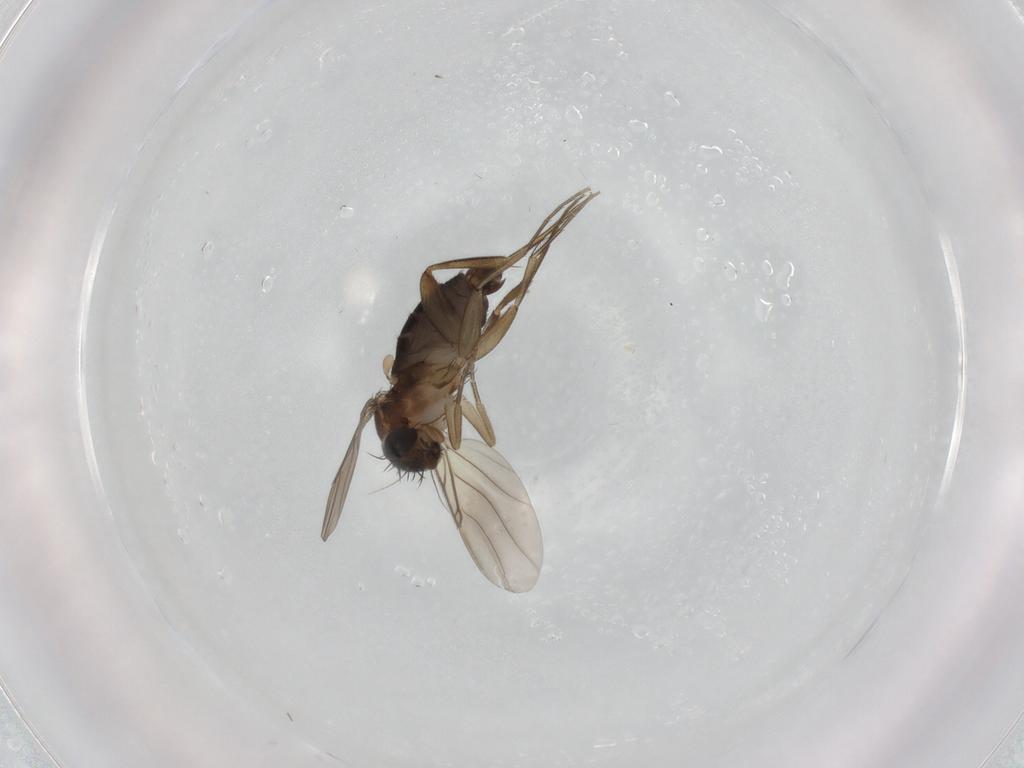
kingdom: Animalia
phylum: Arthropoda
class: Insecta
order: Diptera
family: Phoridae
